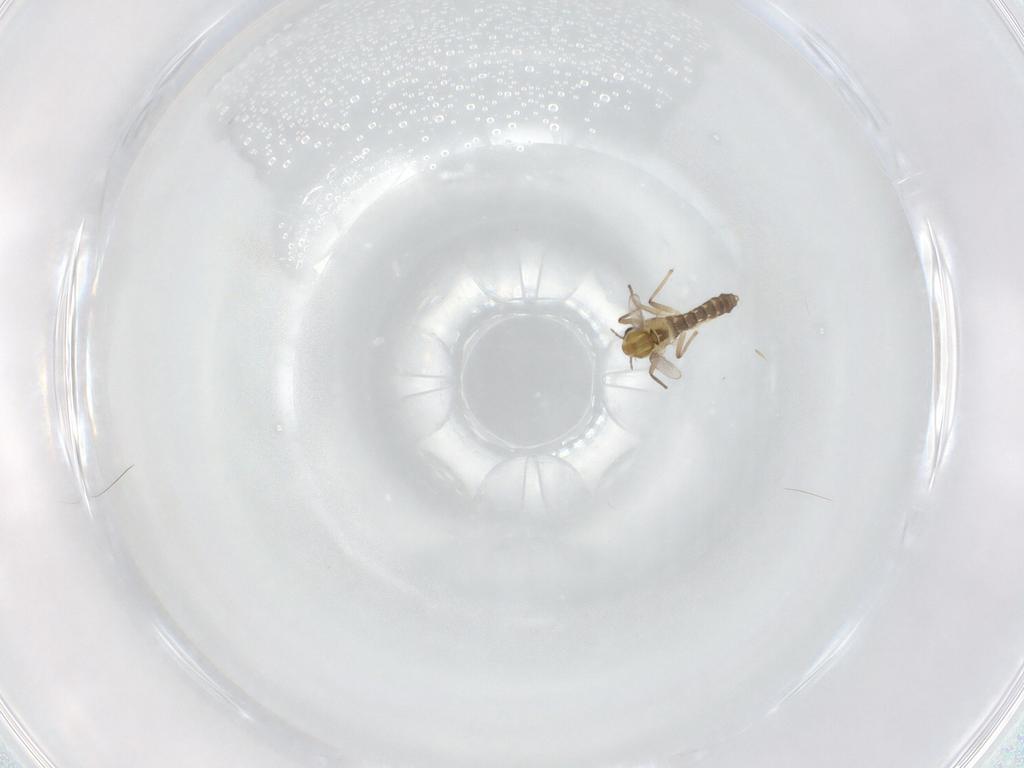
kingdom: Animalia
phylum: Arthropoda
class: Insecta
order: Diptera
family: Chironomidae
